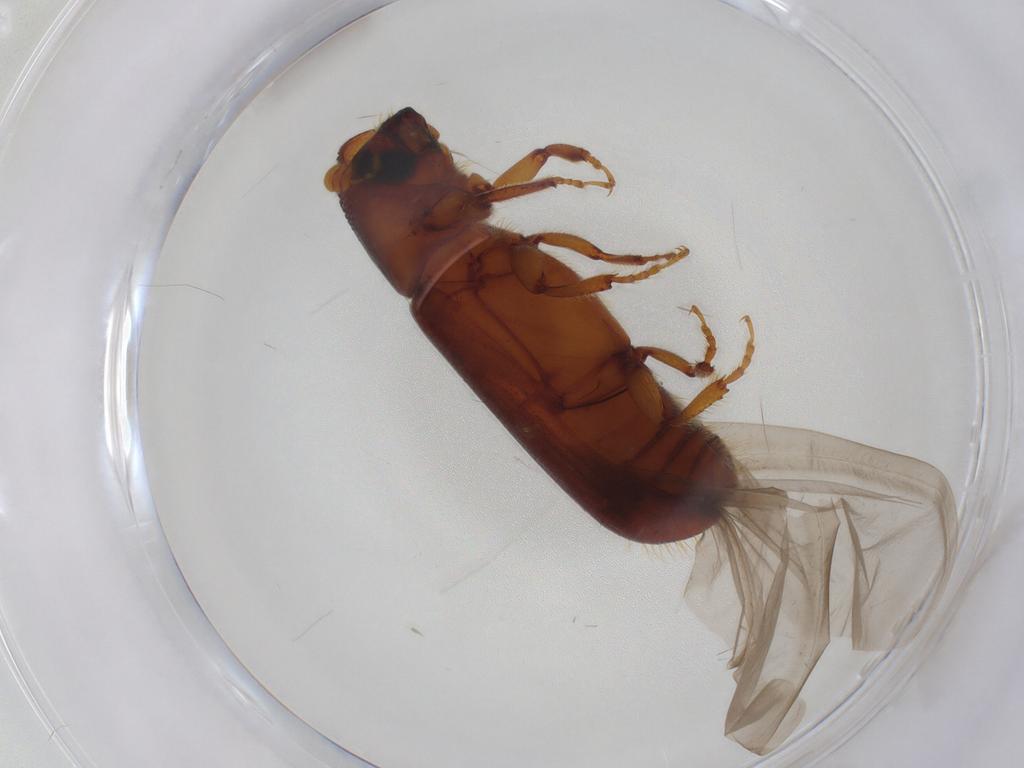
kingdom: Animalia
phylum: Arthropoda
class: Insecta
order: Coleoptera
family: Curculionidae
